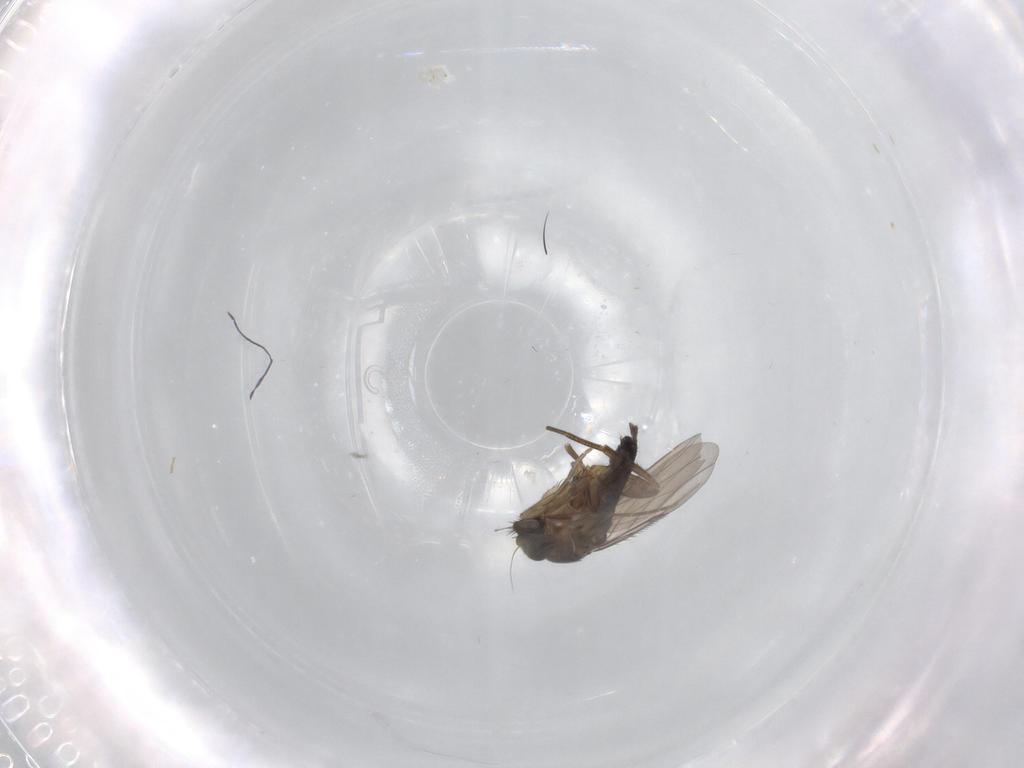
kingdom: Animalia
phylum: Arthropoda
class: Insecta
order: Diptera
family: Phoridae
